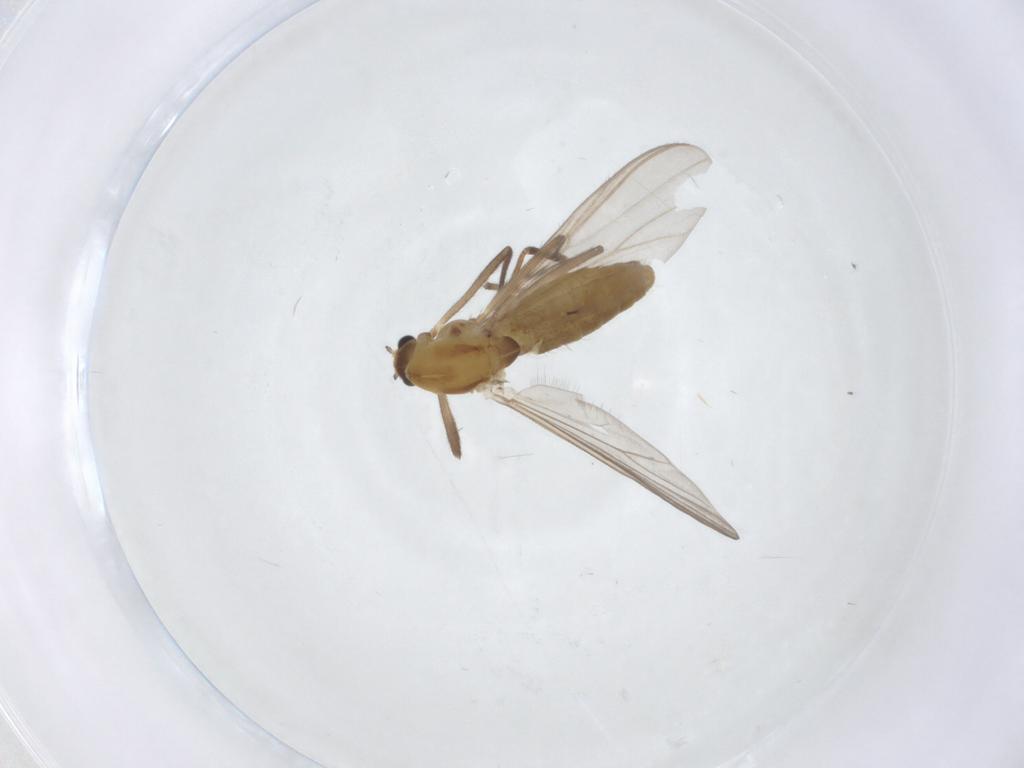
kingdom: Animalia
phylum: Arthropoda
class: Insecta
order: Diptera
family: Chironomidae
